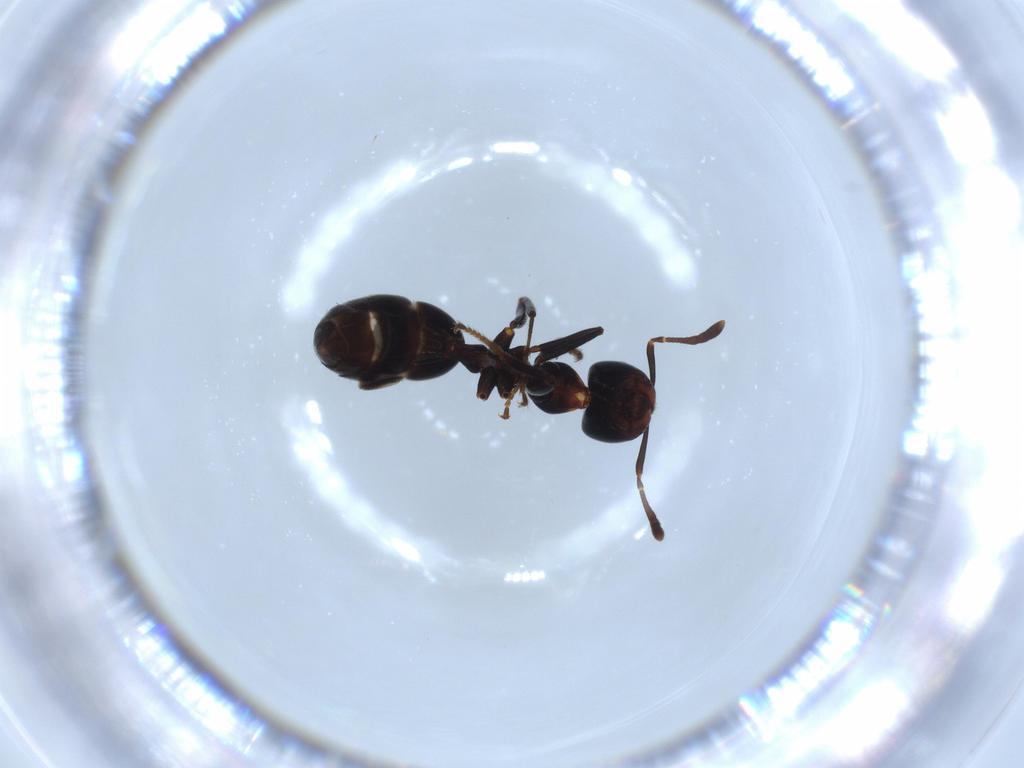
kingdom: Animalia
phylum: Arthropoda
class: Insecta
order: Hymenoptera
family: Formicidae
